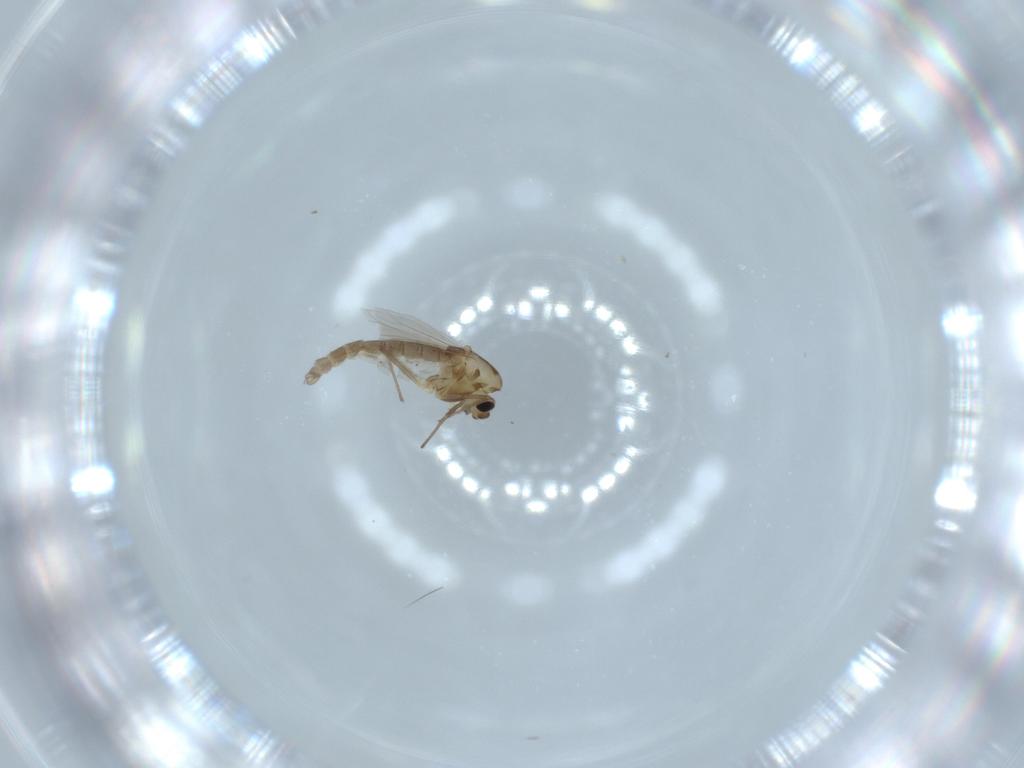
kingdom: Animalia
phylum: Arthropoda
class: Insecta
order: Diptera
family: Chironomidae
